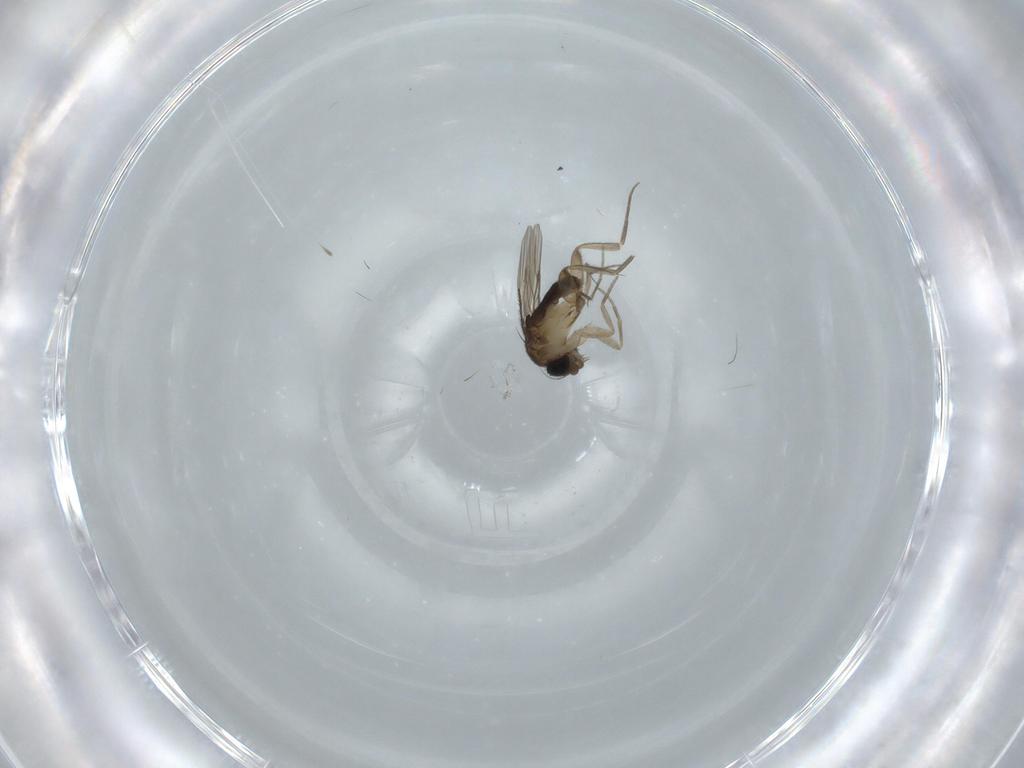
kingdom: Animalia
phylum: Arthropoda
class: Insecta
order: Diptera
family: Phoridae
